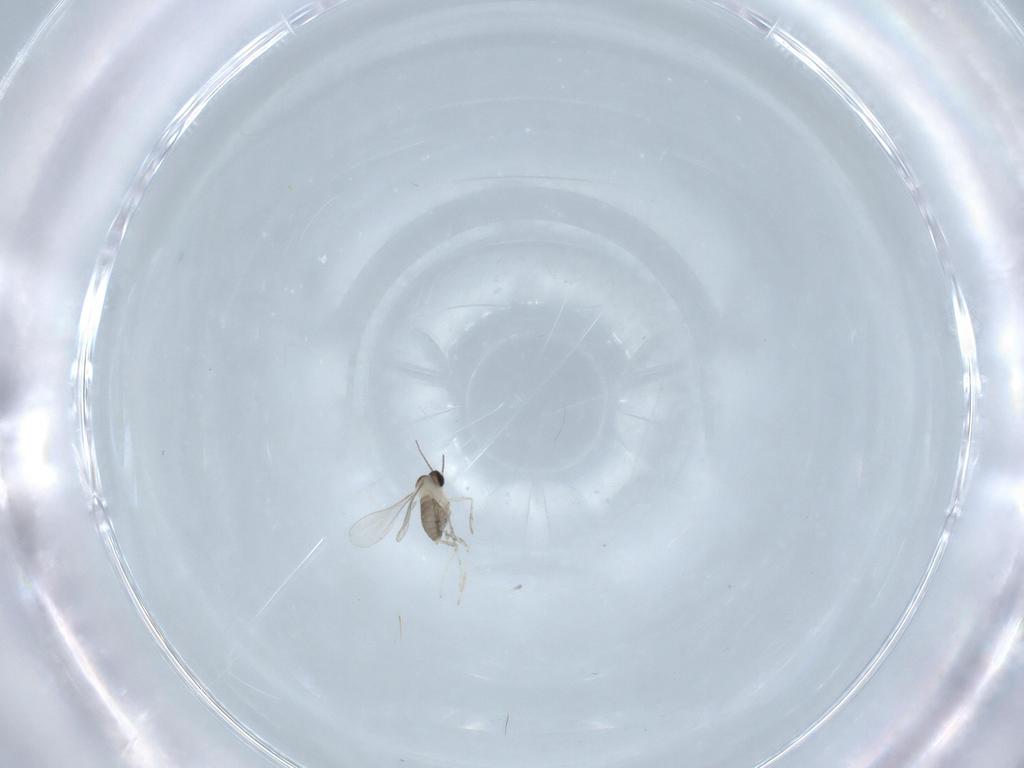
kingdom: Animalia
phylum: Arthropoda
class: Insecta
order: Diptera
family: Cecidomyiidae
